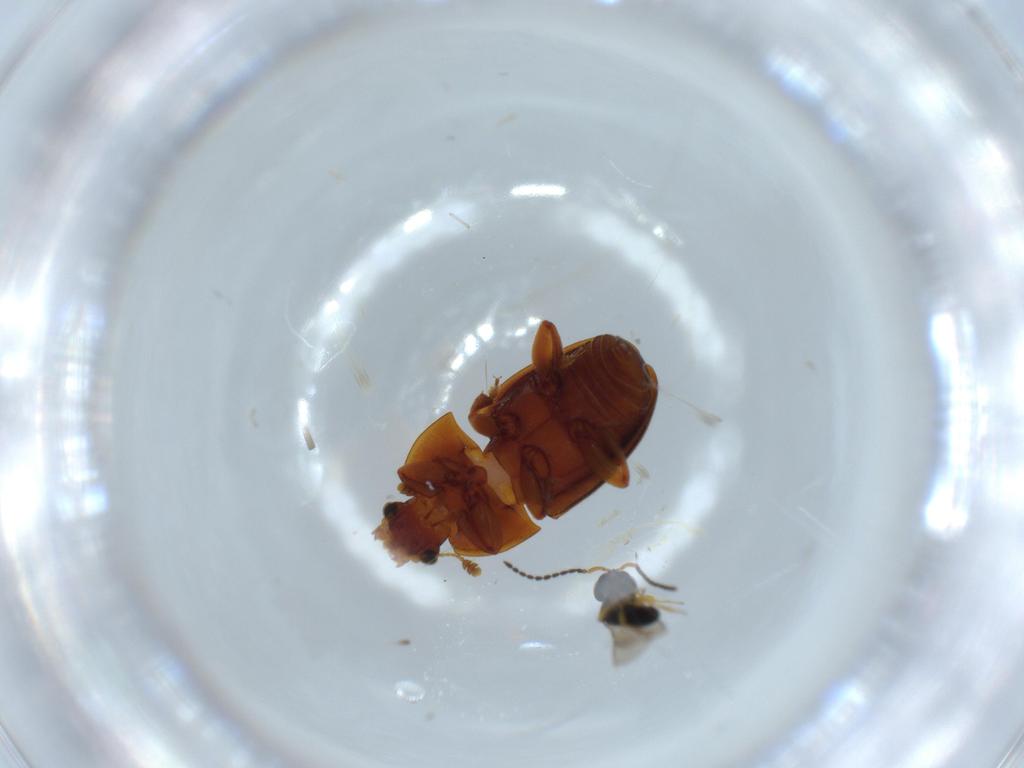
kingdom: Animalia
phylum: Arthropoda
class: Insecta
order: Hymenoptera
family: Scelionidae
